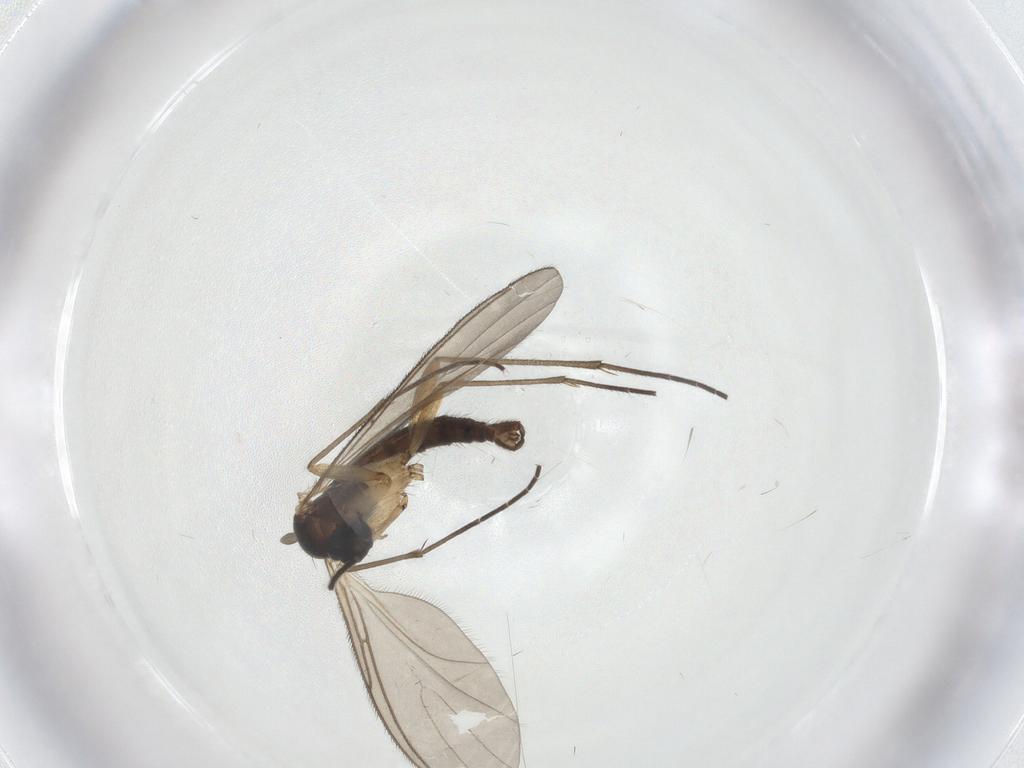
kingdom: Animalia
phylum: Arthropoda
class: Insecta
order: Diptera
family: Sciaridae
